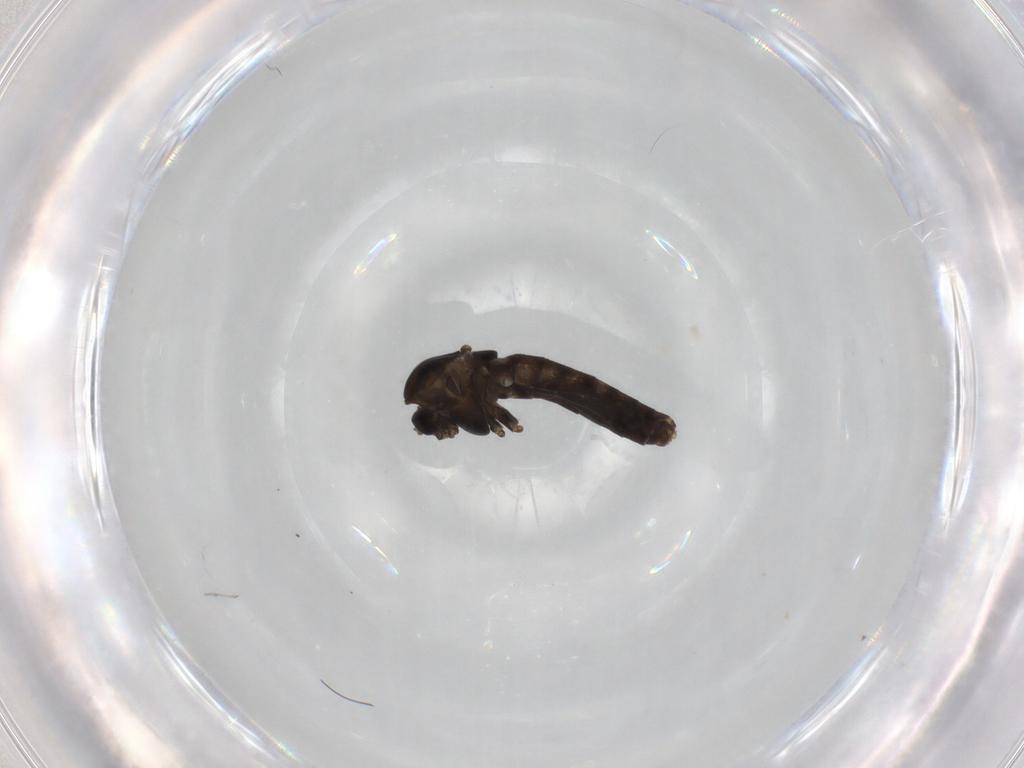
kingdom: Animalia
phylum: Arthropoda
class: Insecta
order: Diptera
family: Chironomidae
